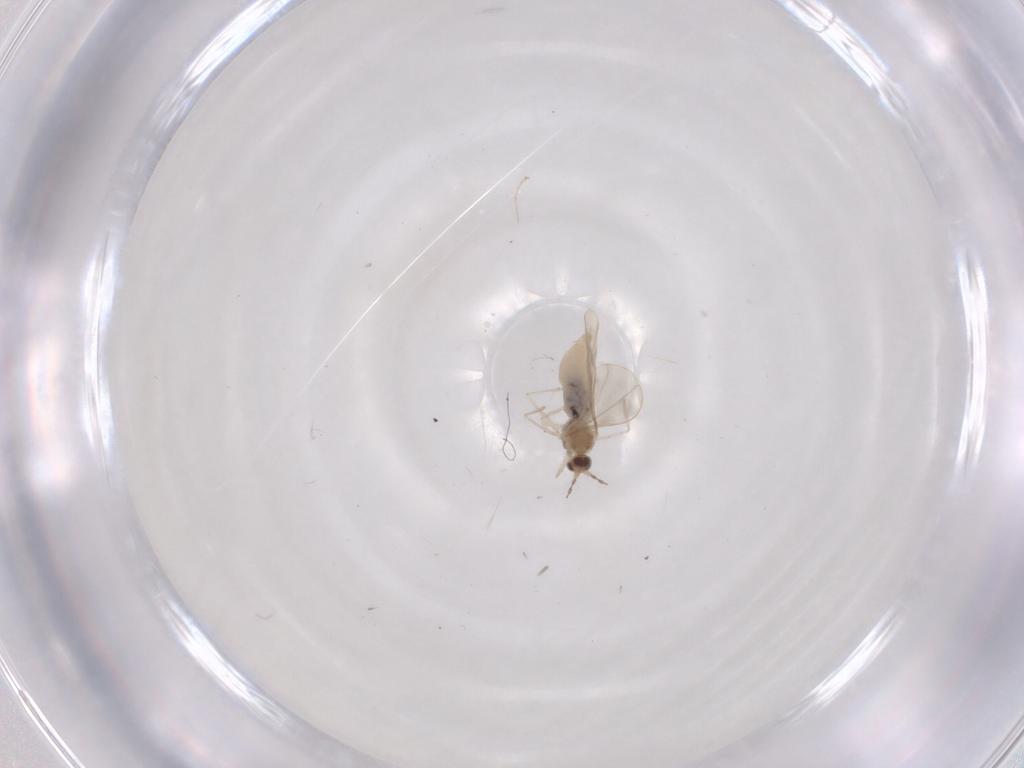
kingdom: Animalia
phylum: Arthropoda
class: Insecta
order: Diptera
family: Cecidomyiidae
